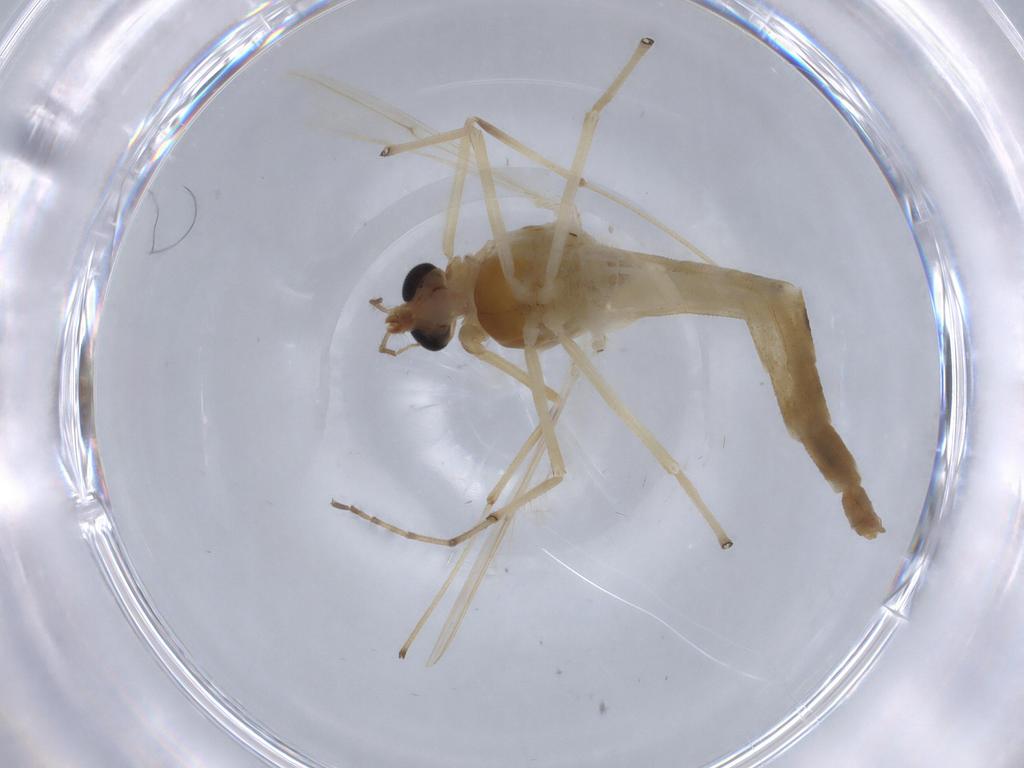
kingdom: Animalia
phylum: Arthropoda
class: Insecta
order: Diptera
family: Chironomidae
